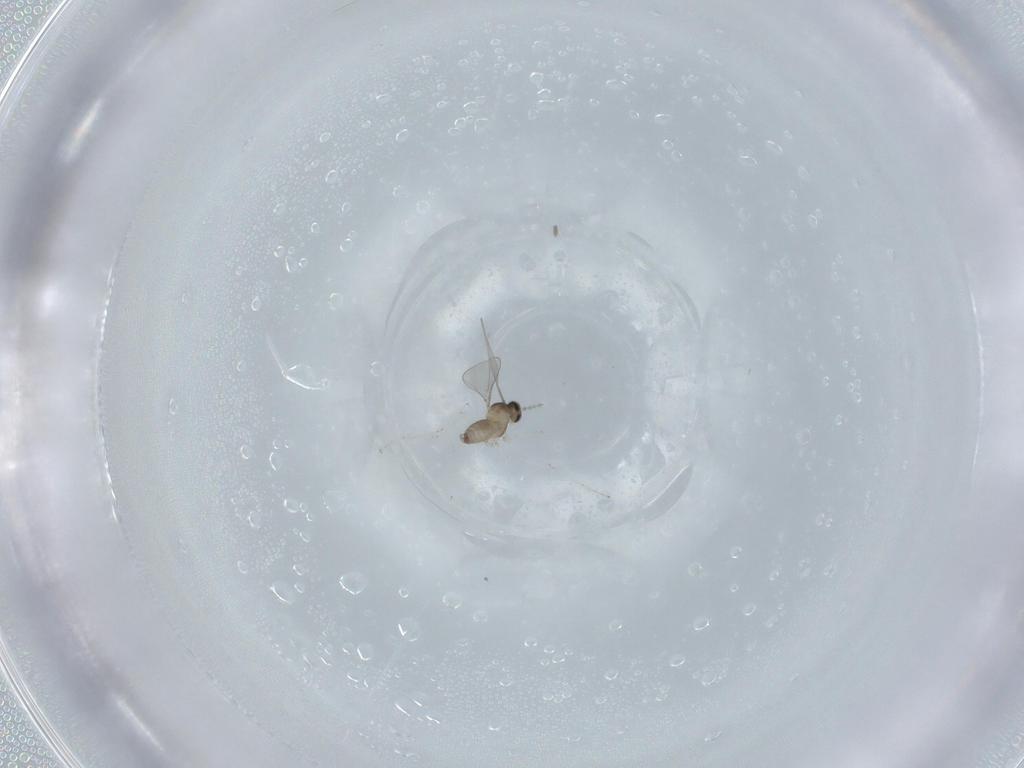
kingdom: Animalia
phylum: Arthropoda
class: Insecta
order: Diptera
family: Cecidomyiidae
